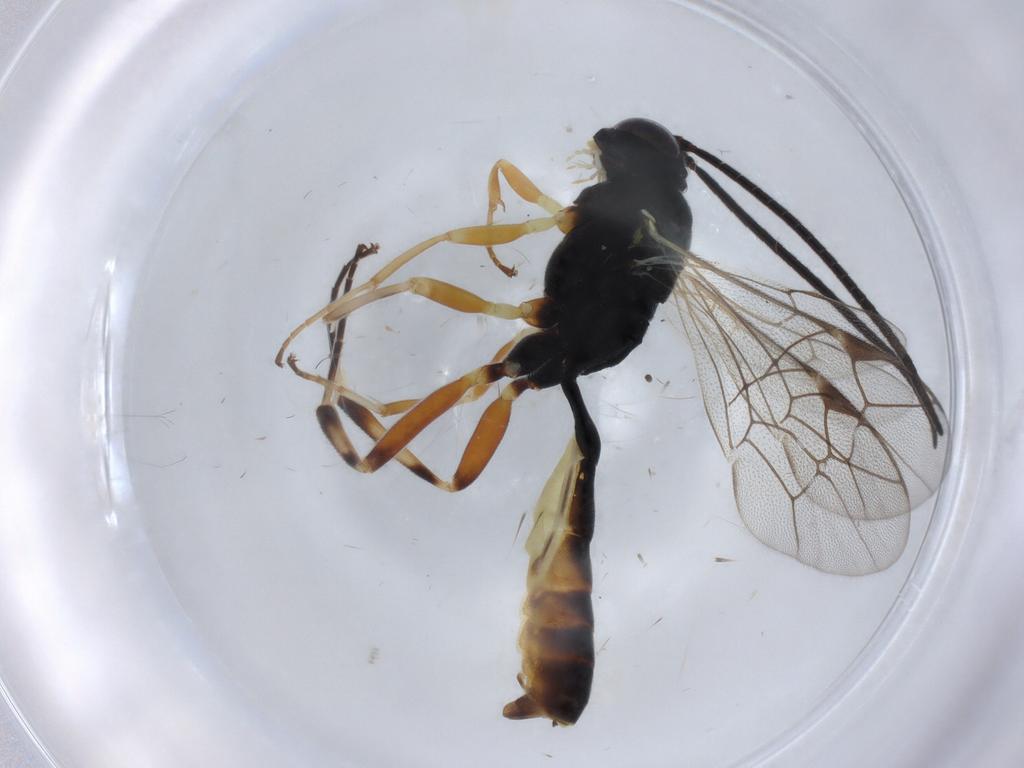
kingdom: Animalia
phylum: Arthropoda
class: Insecta
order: Hymenoptera
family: Ichneumonidae
